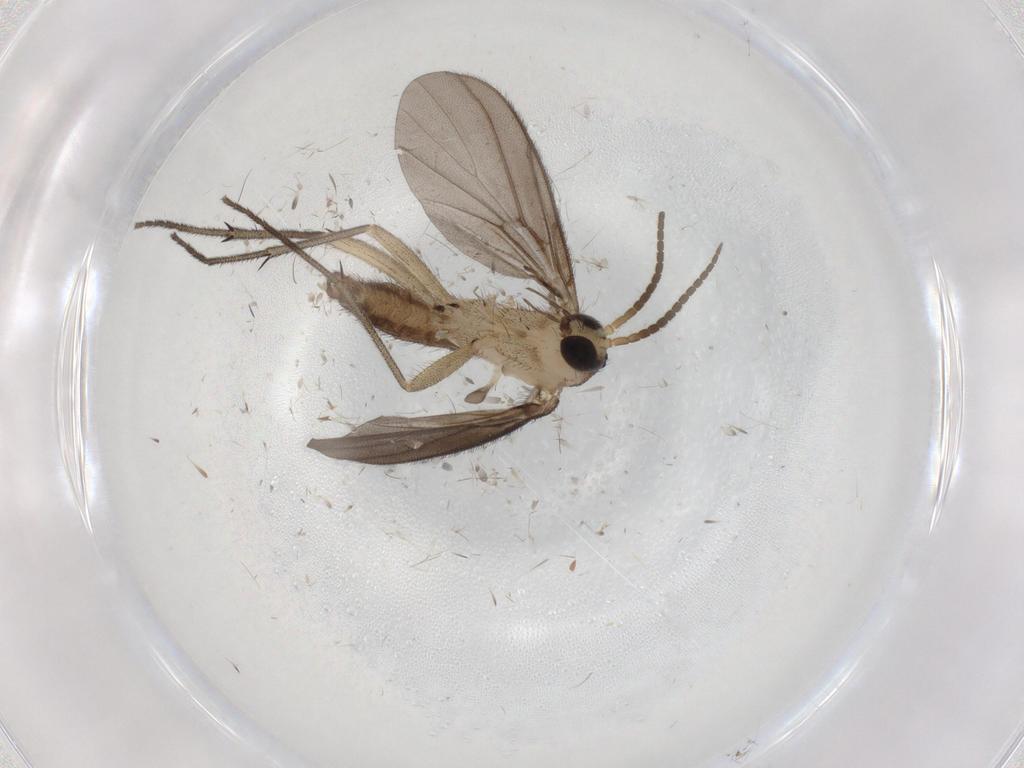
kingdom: Animalia
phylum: Arthropoda
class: Insecta
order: Diptera
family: Diadocidiidae
